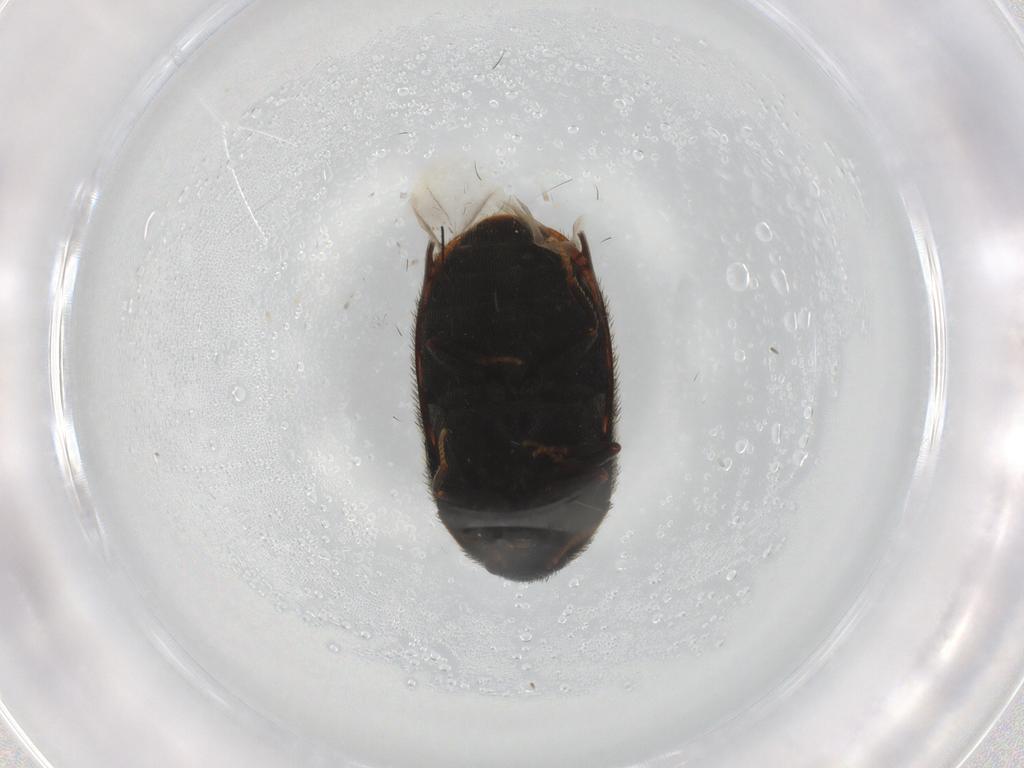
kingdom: Animalia
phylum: Arthropoda
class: Insecta
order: Coleoptera
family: Dermestidae
